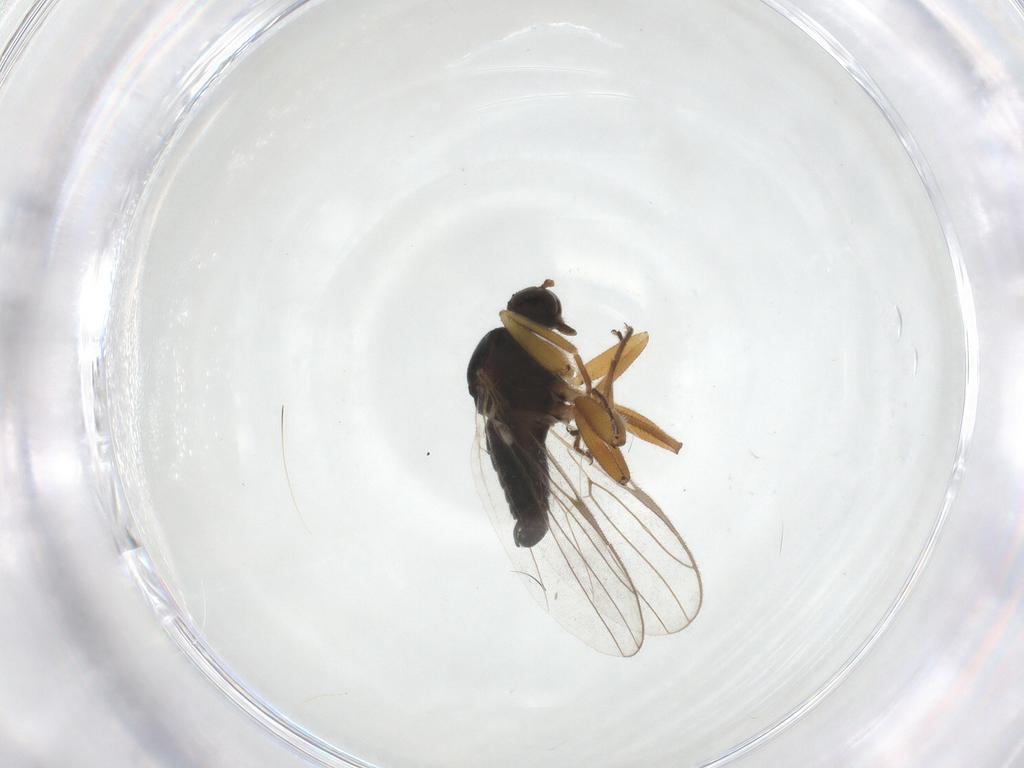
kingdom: Animalia
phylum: Arthropoda
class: Insecta
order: Diptera
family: Hybotidae
